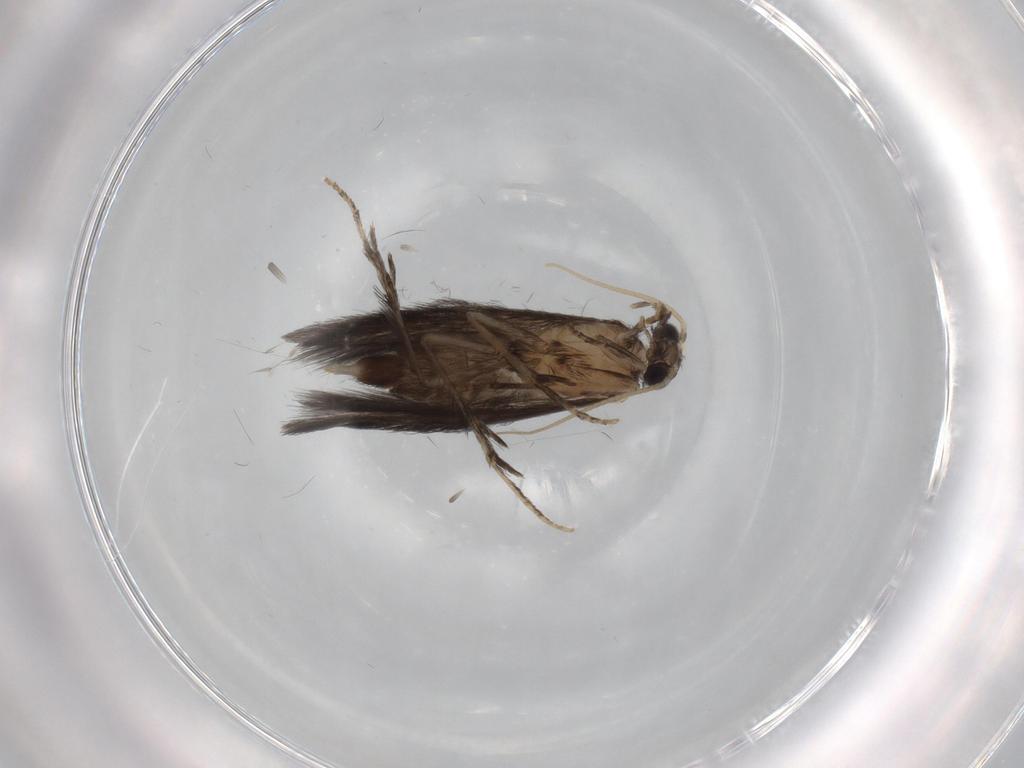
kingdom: Animalia
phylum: Arthropoda
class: Insecta
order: Trichoptera
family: Hydroptilidae
